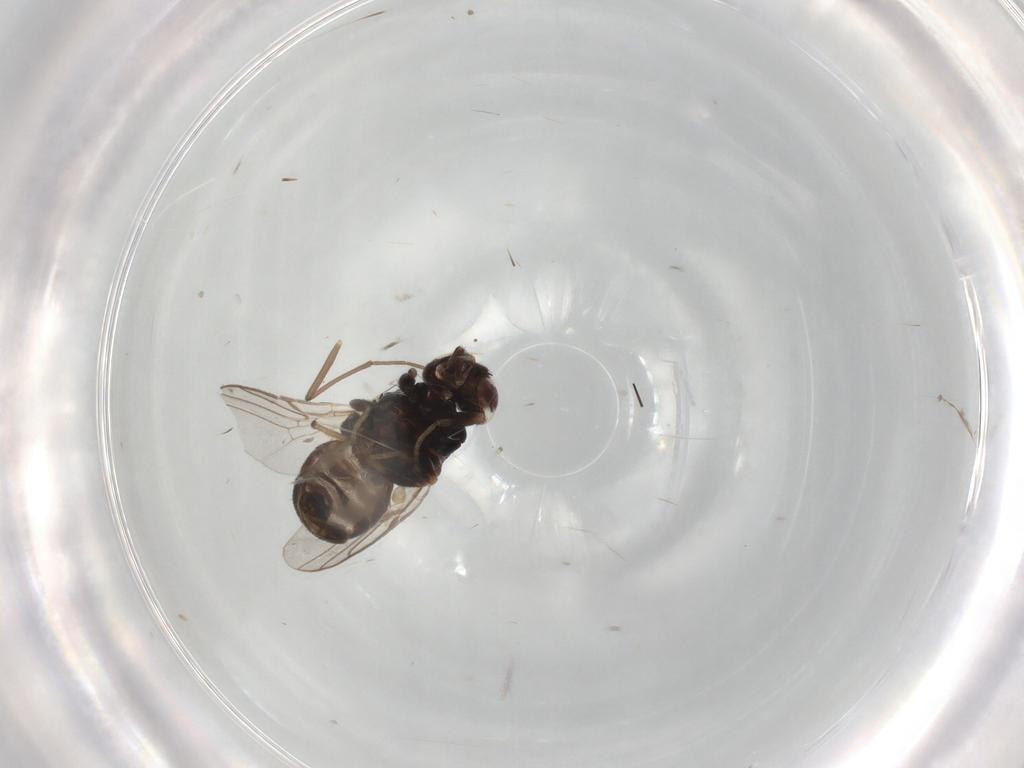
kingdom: Animalia
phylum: Arthropoda
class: Insecta
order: Diptera
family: Chloropidae
